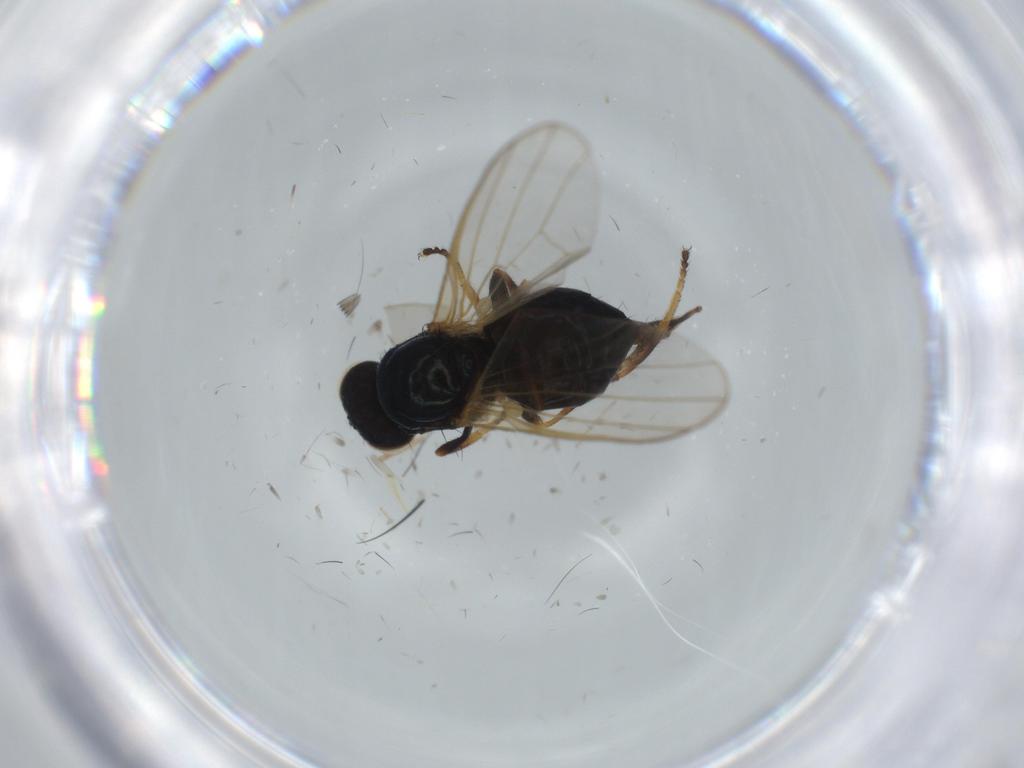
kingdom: Animalia
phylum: Arthropoda
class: Insecta
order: Diptera
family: Piophilidae
